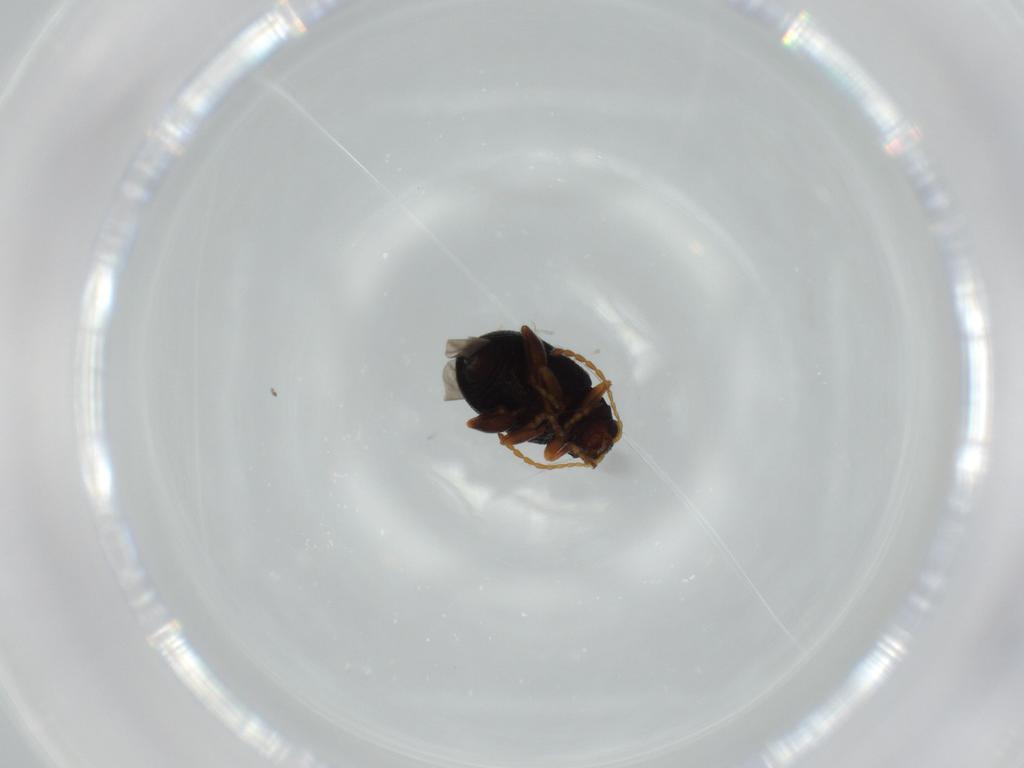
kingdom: Animalia
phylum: Arthropoda
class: Insecta
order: Coleoptera
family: Chrysomelidae
